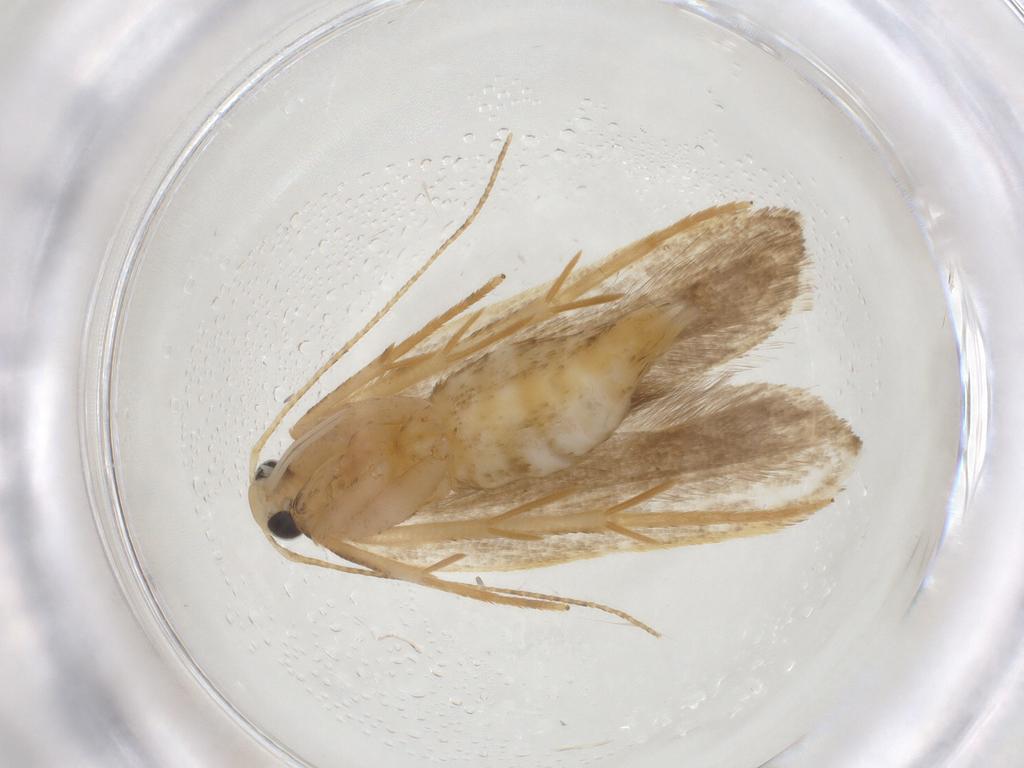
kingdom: Animalia
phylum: Arthropoda
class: Insecta
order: Lepidoptera
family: Gelechiidae
